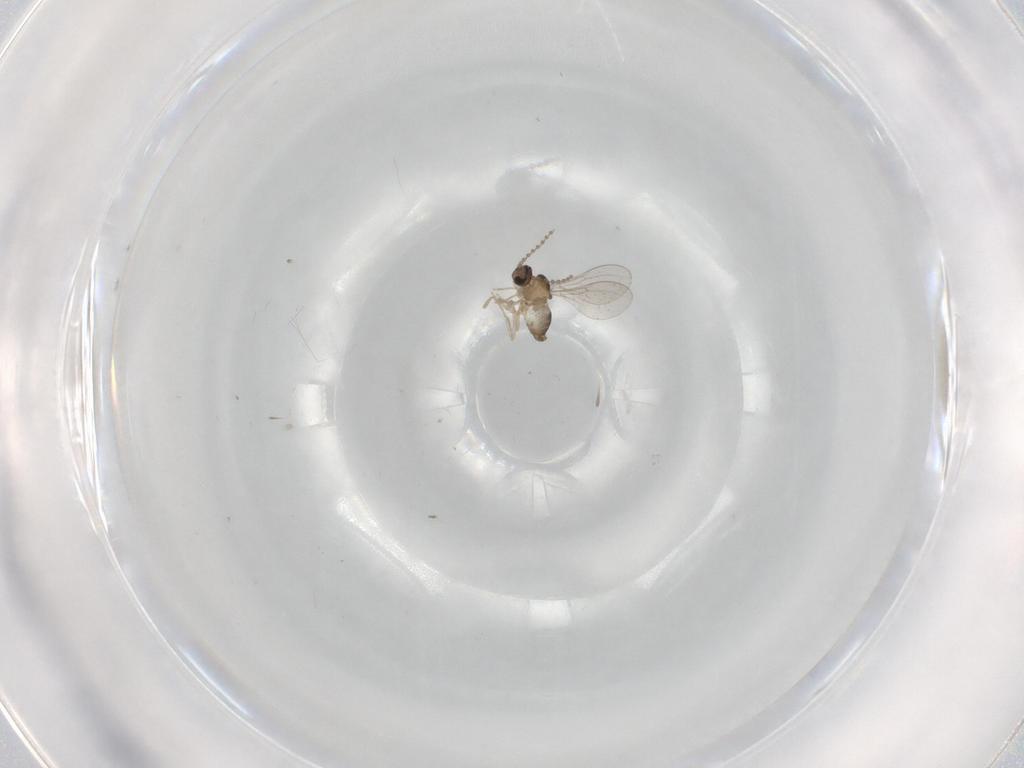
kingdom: Animalia
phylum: Arthropoda
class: Insecta
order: Diptera
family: Cecidomyiidae
